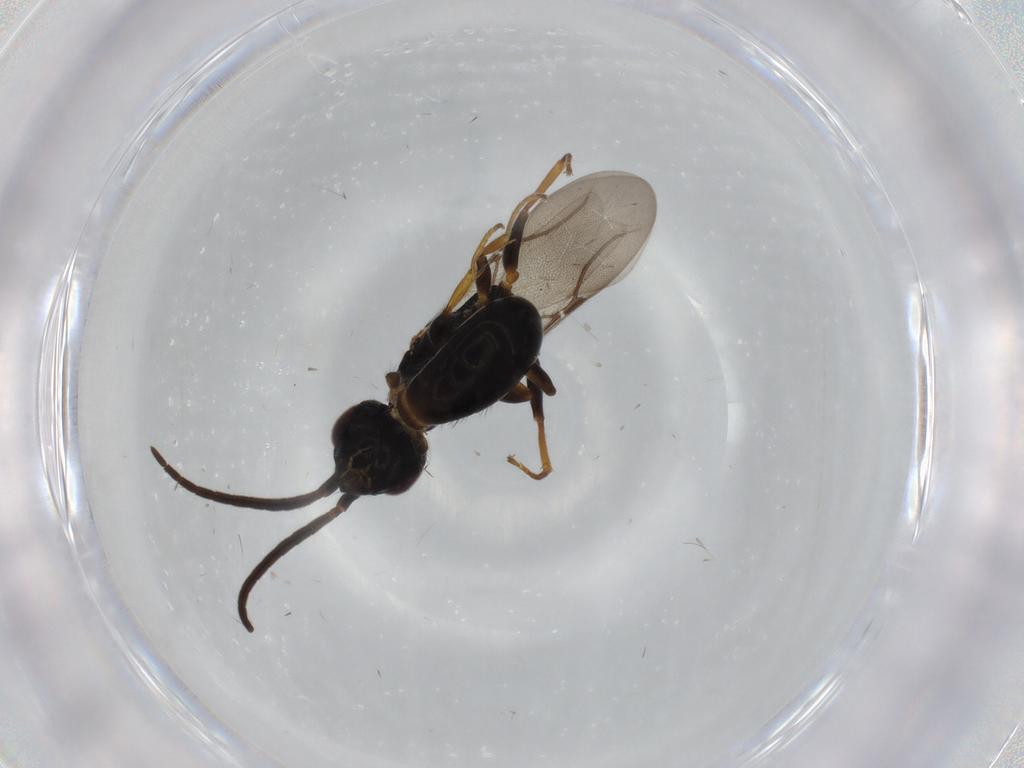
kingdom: Animalia
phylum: Arthropoda
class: Insecta
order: Hymenoptera
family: Bethylidae
